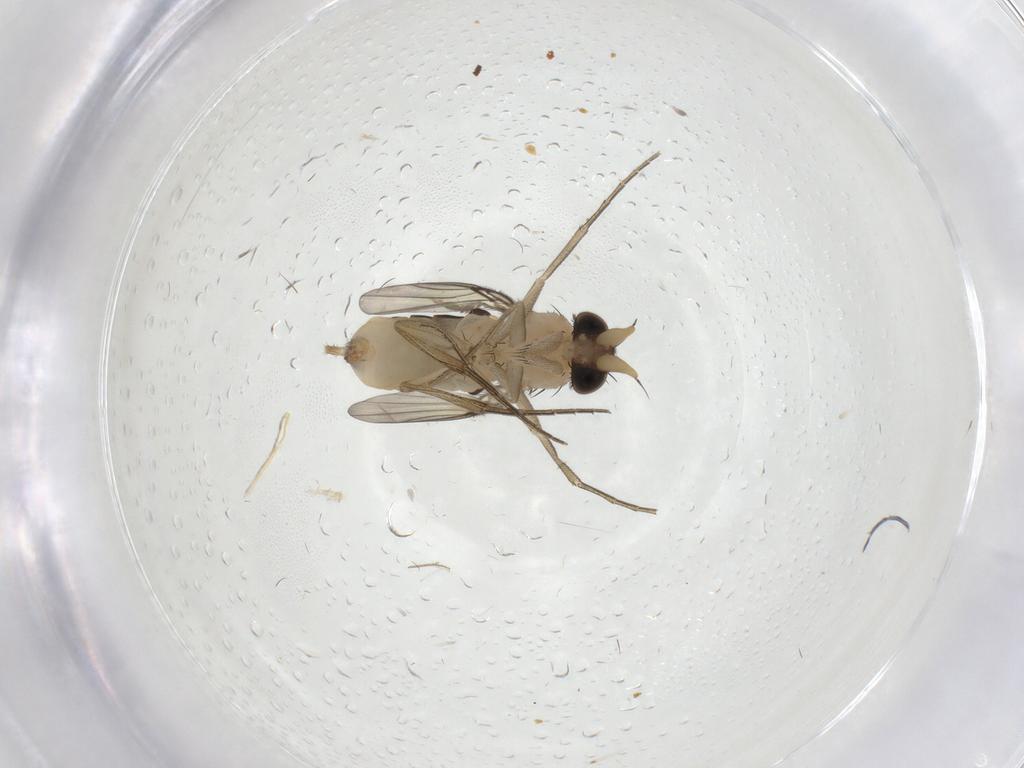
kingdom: Animalia
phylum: Arthropoda
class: Insecta
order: Diptera
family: Phoridae
